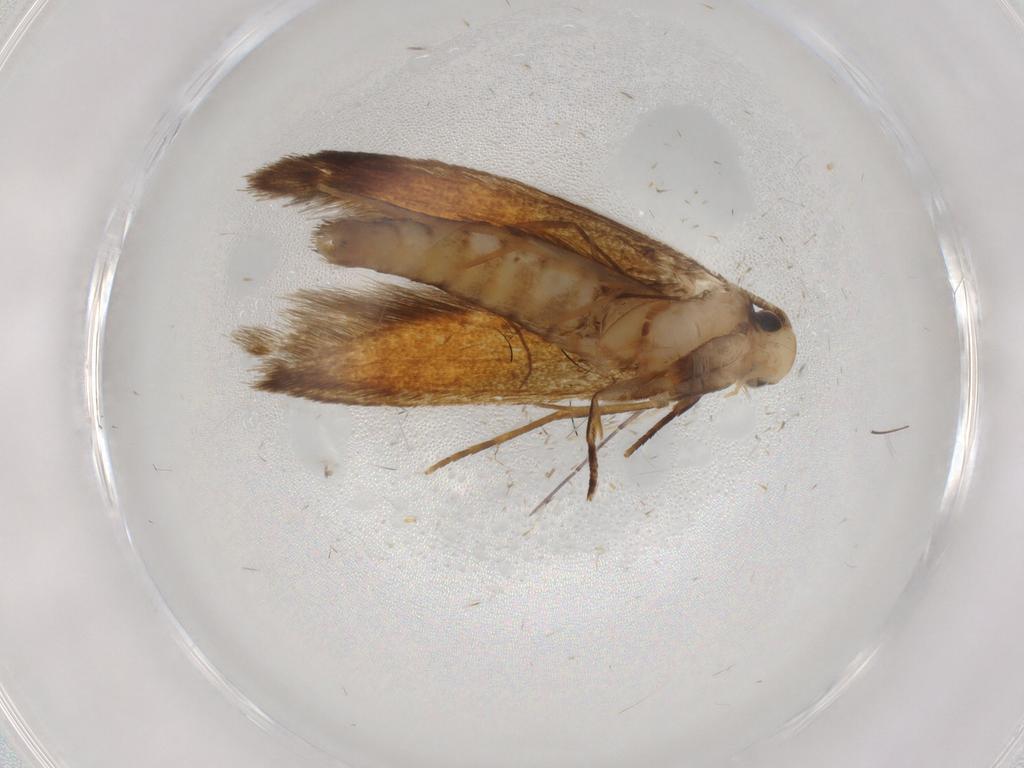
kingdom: Animalia
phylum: Arthropoda
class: Insecta
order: Lepidoptera
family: Tineidae
